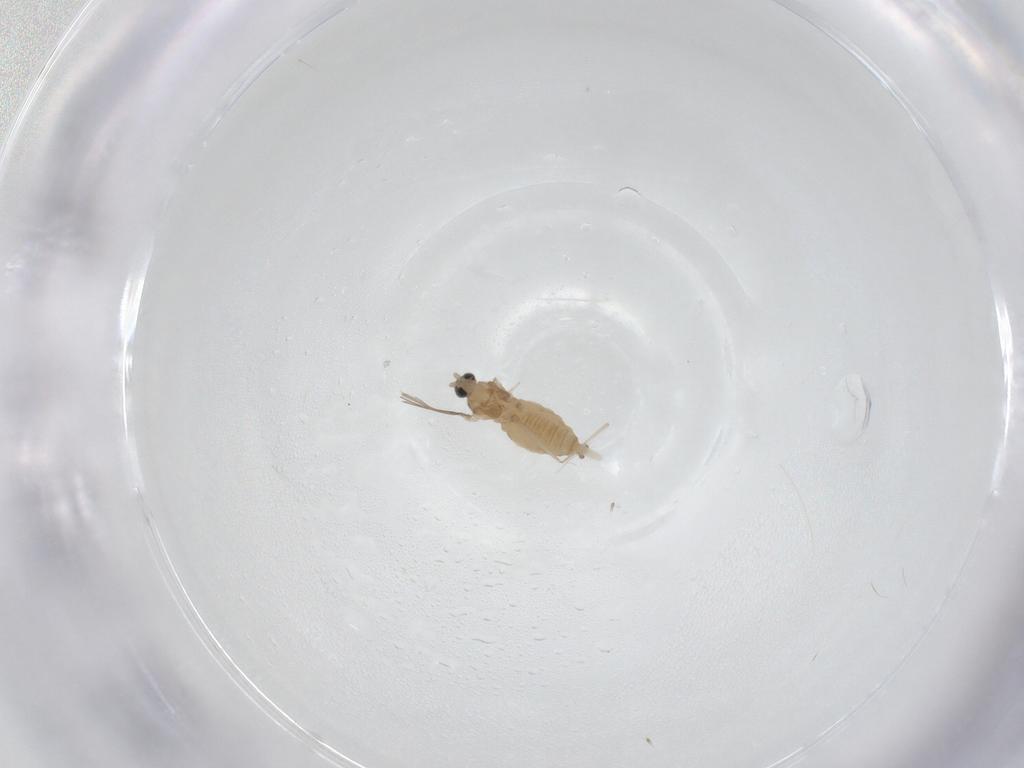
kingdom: Animalia
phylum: Arthropoda
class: Insecta
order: Diptera
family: Cecidomyiidae
